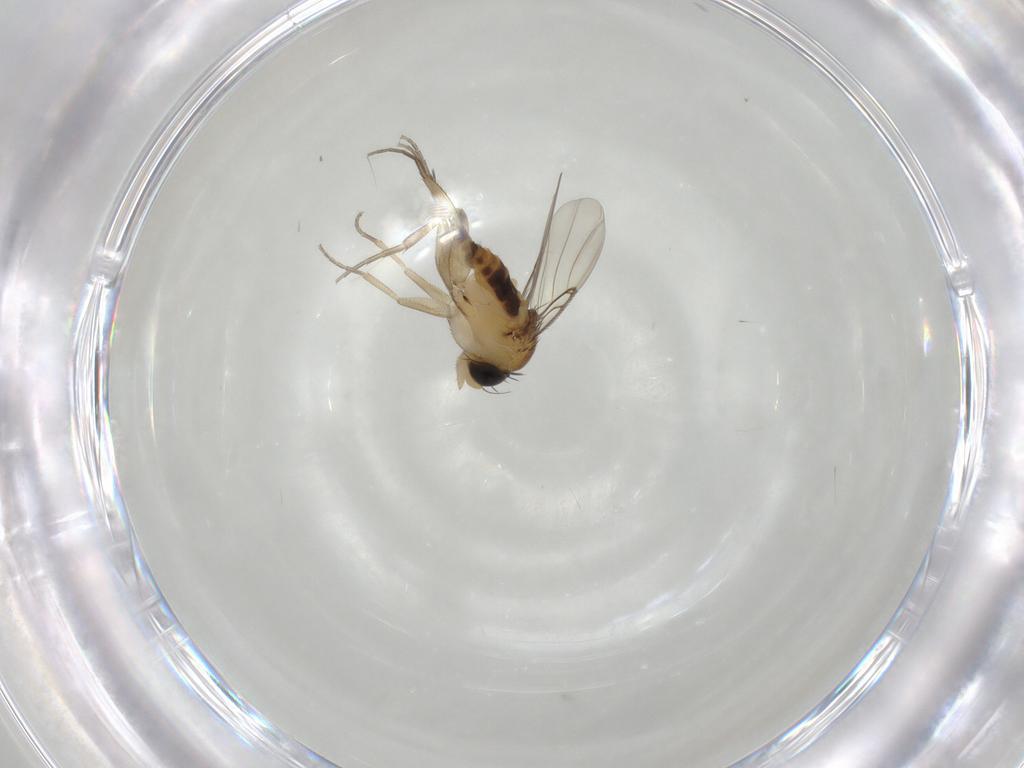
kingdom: Animalia
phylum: Arthropoda
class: Insecta
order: Diptera
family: Phoridae
